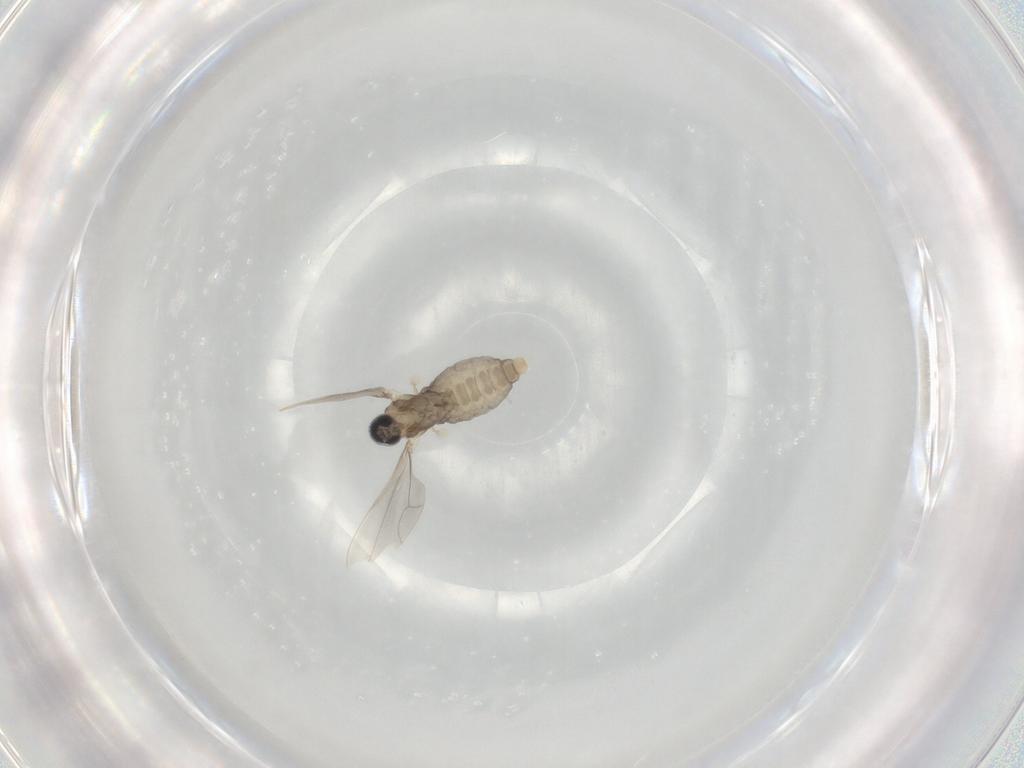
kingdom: Animalia
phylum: Arthropoda
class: Insecta
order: Diptera
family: Cecidomyiidae
